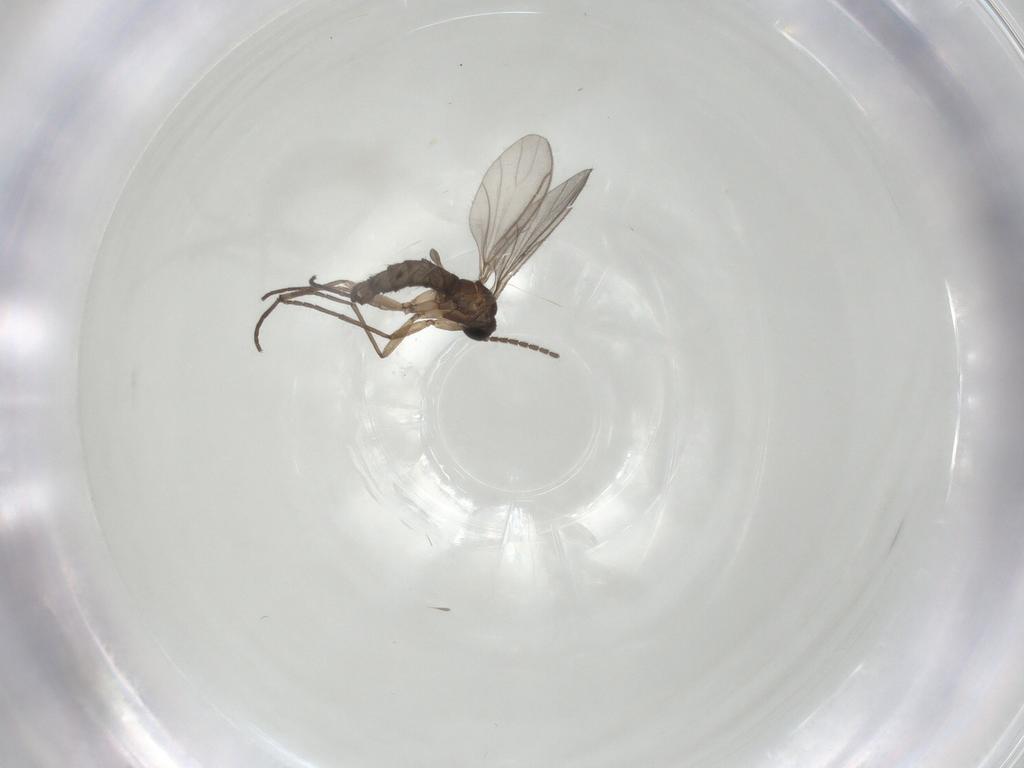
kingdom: Animalia
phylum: Arthropoda
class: Insecta
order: Diptera
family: Sciaridae
